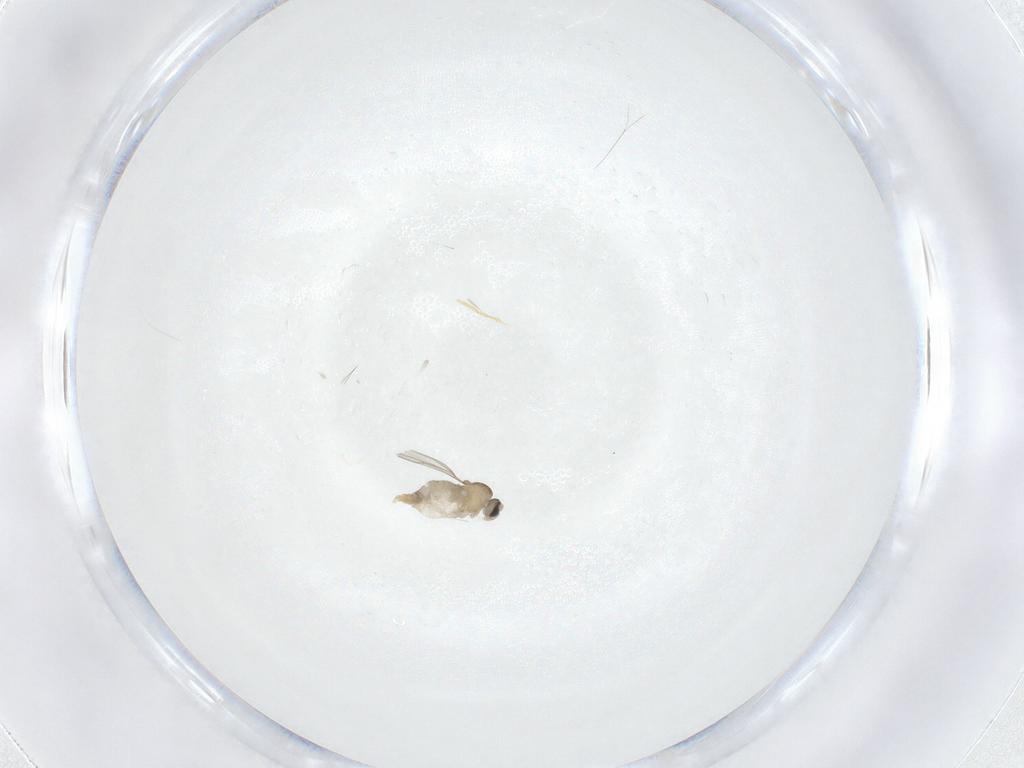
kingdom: Animalia
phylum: Arthropoda
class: Insecta
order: Diptera
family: Cecidomyiidae
